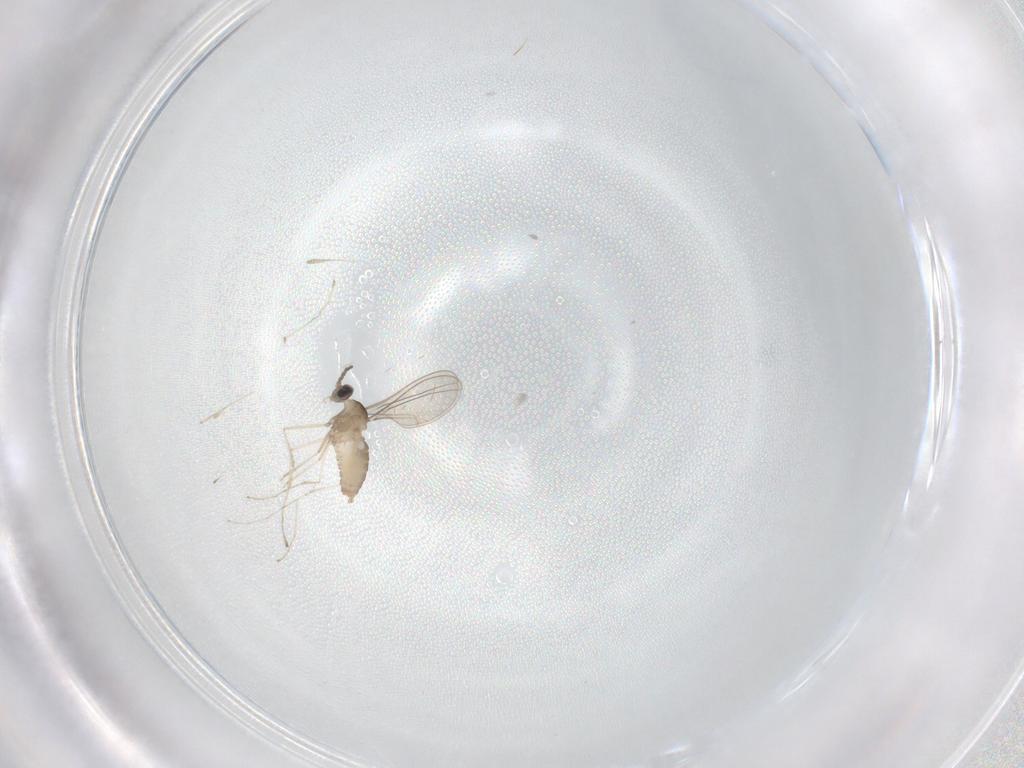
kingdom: Animalia
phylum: Arthropoda
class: Insecta
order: Diptera
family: Cecidomyiidae
